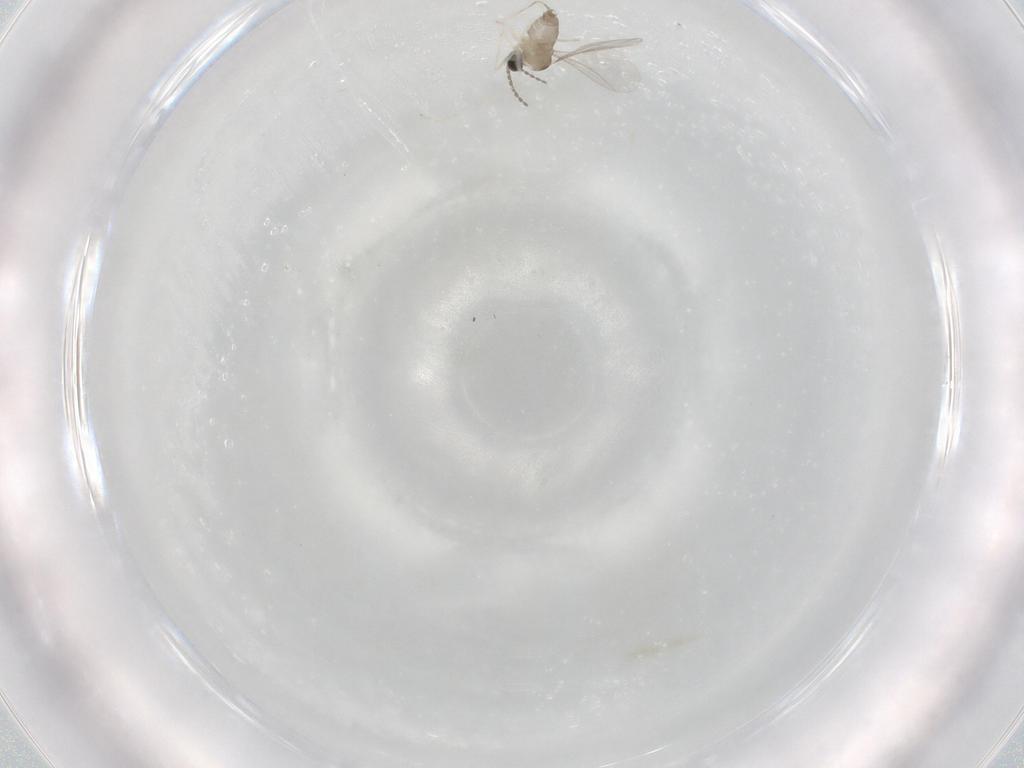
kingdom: Animalia
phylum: Arthropoda
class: Insecta
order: Diptera
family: Cecidomyiidae
